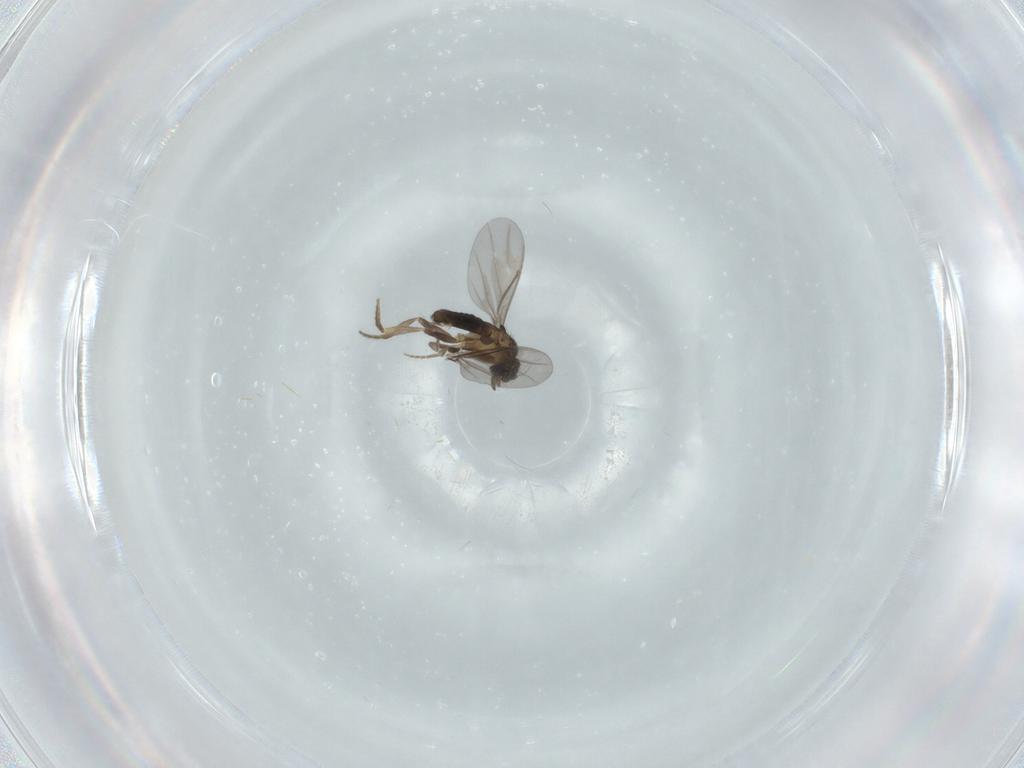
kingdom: Animalia
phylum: Arthropoda
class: Insecta
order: Diptera
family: Sciaridae
